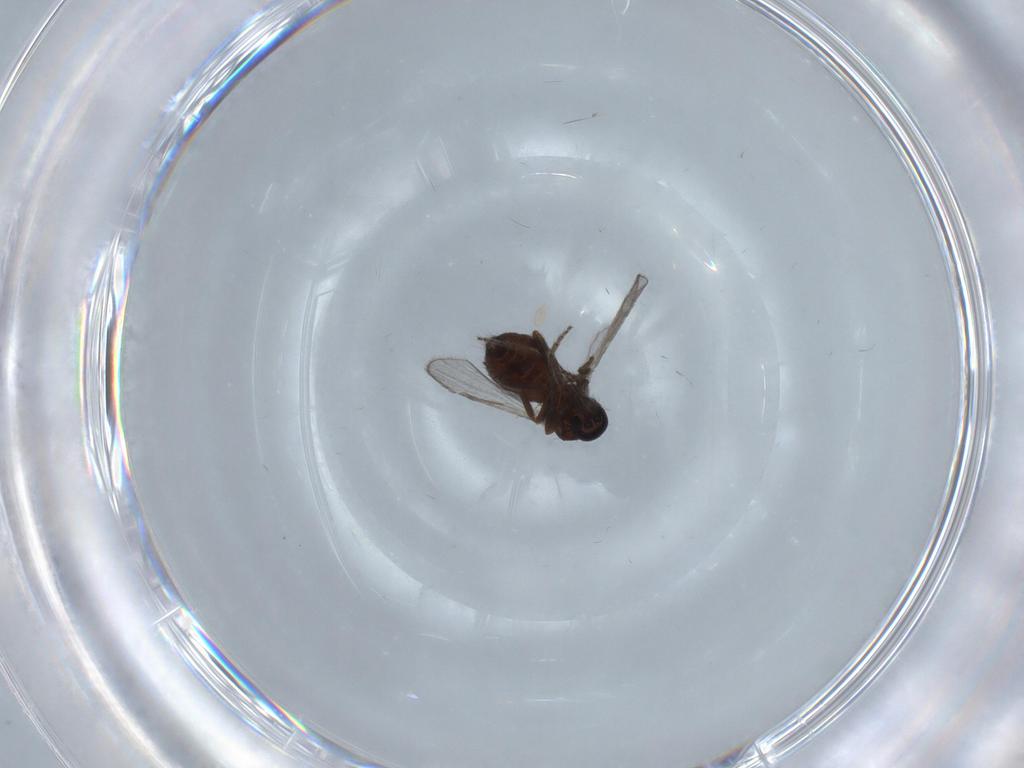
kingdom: Animalia
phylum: Arthropoda
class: Insecta
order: Diptera
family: Ceratopogonidae
